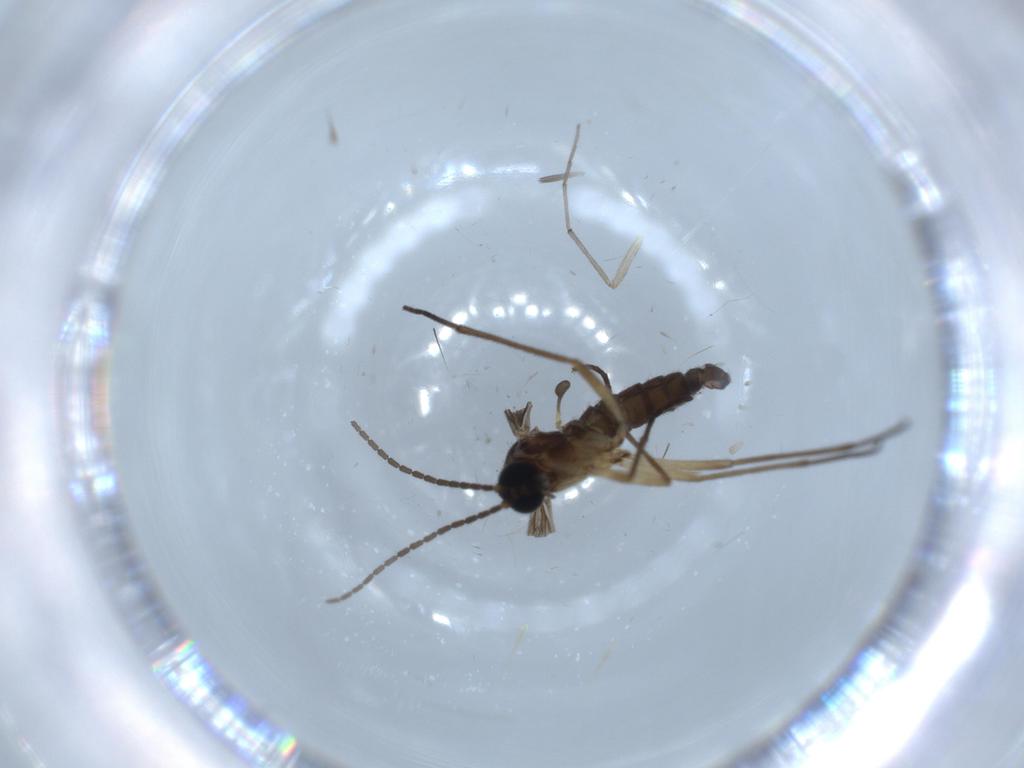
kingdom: Animalia
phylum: Arthropoda
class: Insecta
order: Diptera
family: Sciaridae
